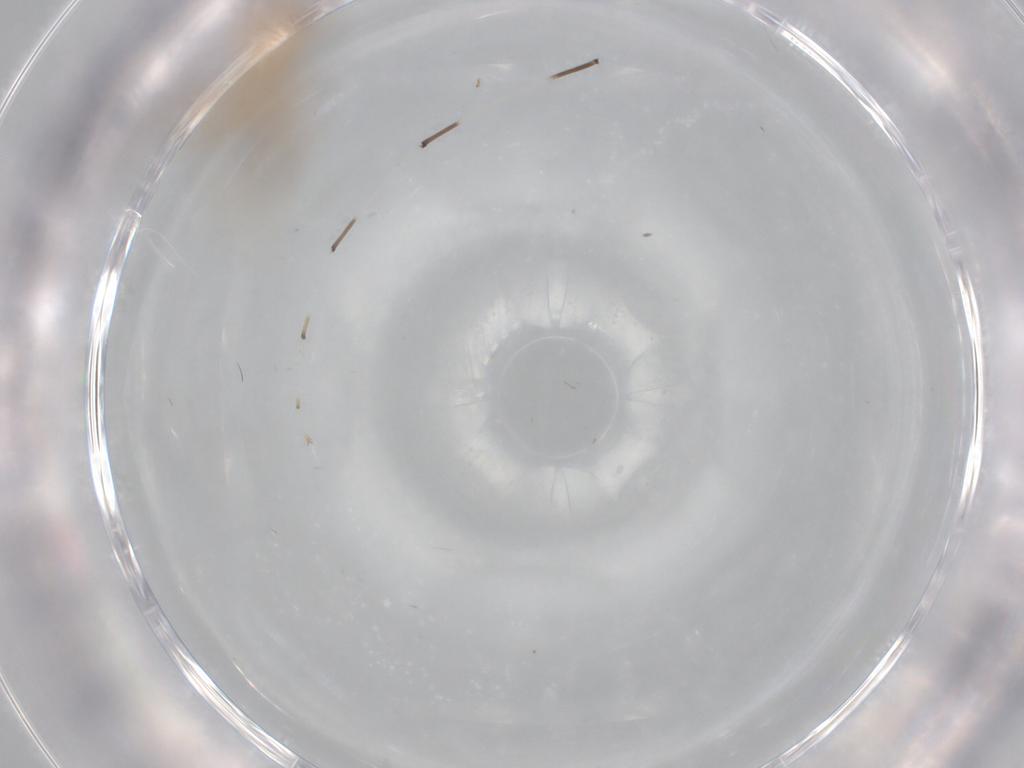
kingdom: Animalia
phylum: Arthropoda
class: Insecta
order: Hymenoptera
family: Mymaridae
